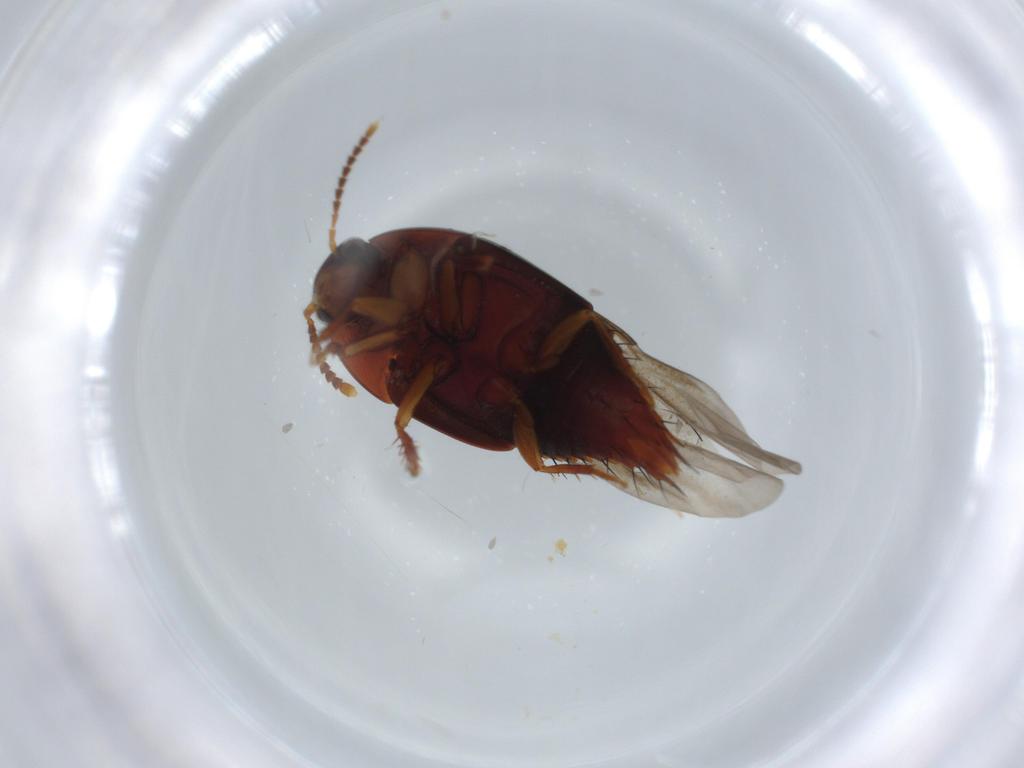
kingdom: Animalia
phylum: Arthropoda
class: Insecta
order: Coleoptera
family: Staphylinidae
